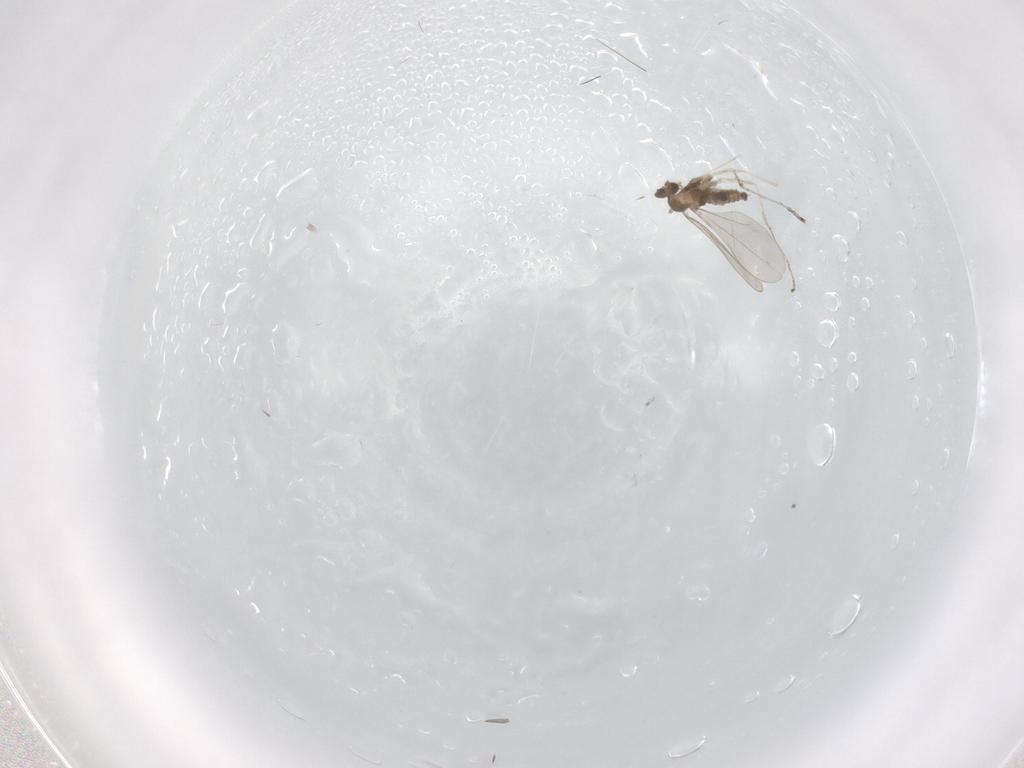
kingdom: Animalia
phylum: Arthropoda
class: Insecta
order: Diptera
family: Cecidomyiidae
